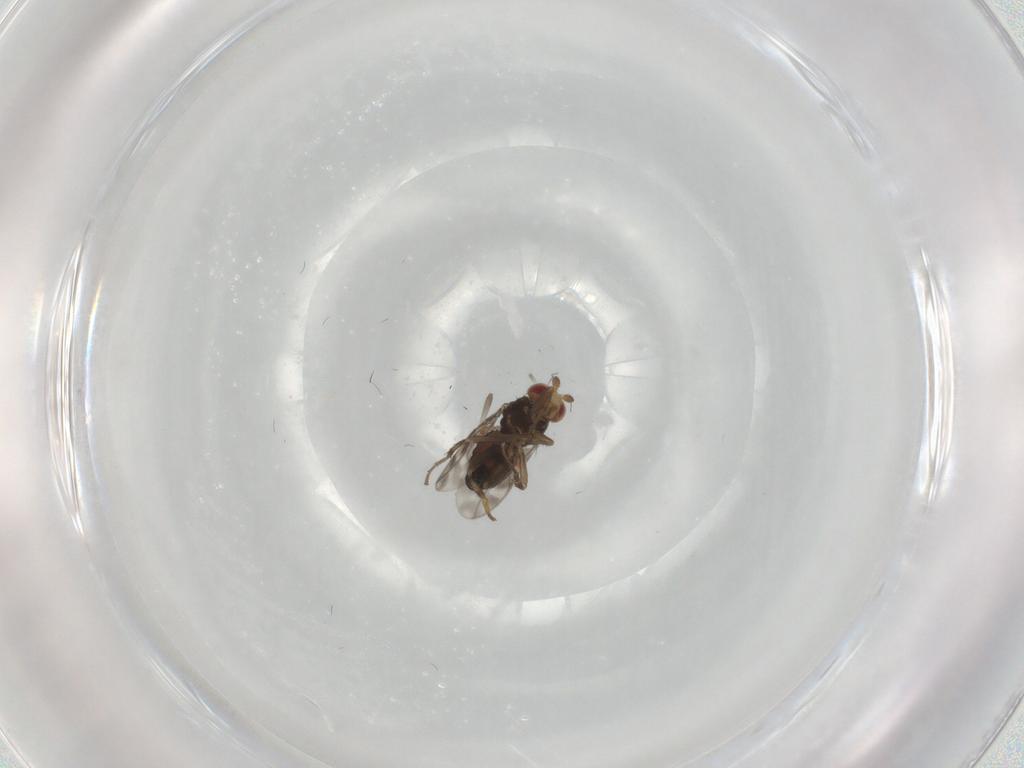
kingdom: Animalia
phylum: Arthropoda
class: Insecta
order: Diptera
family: Sphaeroceridae
